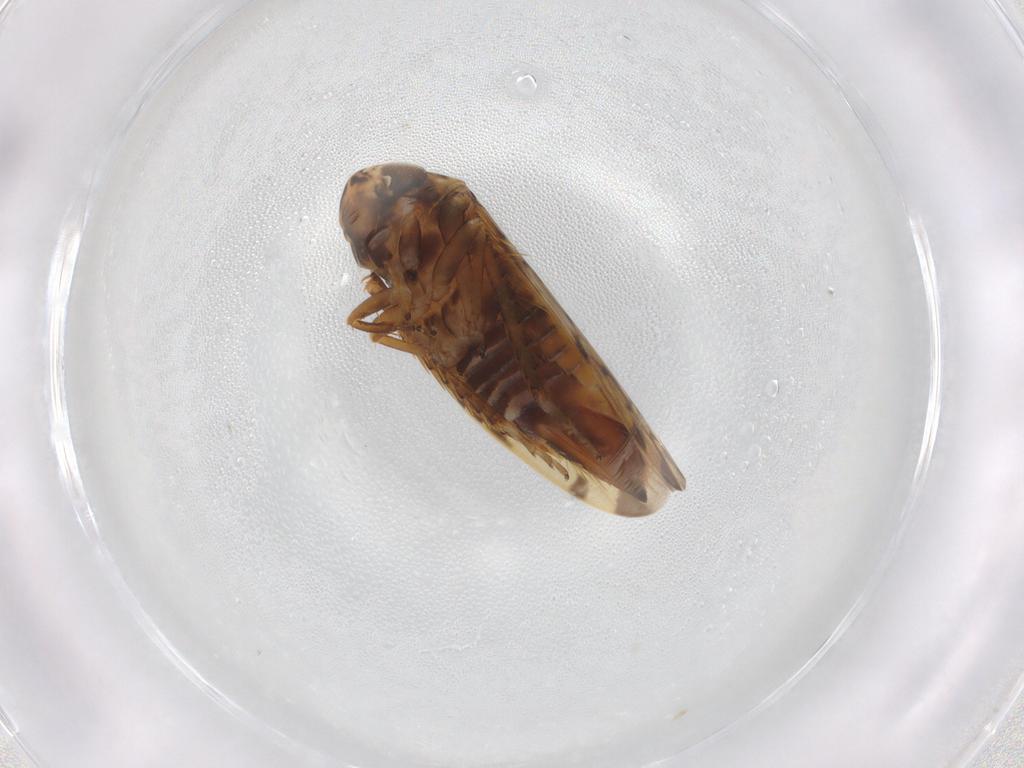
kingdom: Animalia
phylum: Arthropoda
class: Insecta
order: Hemiptera
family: Cicadellidae
